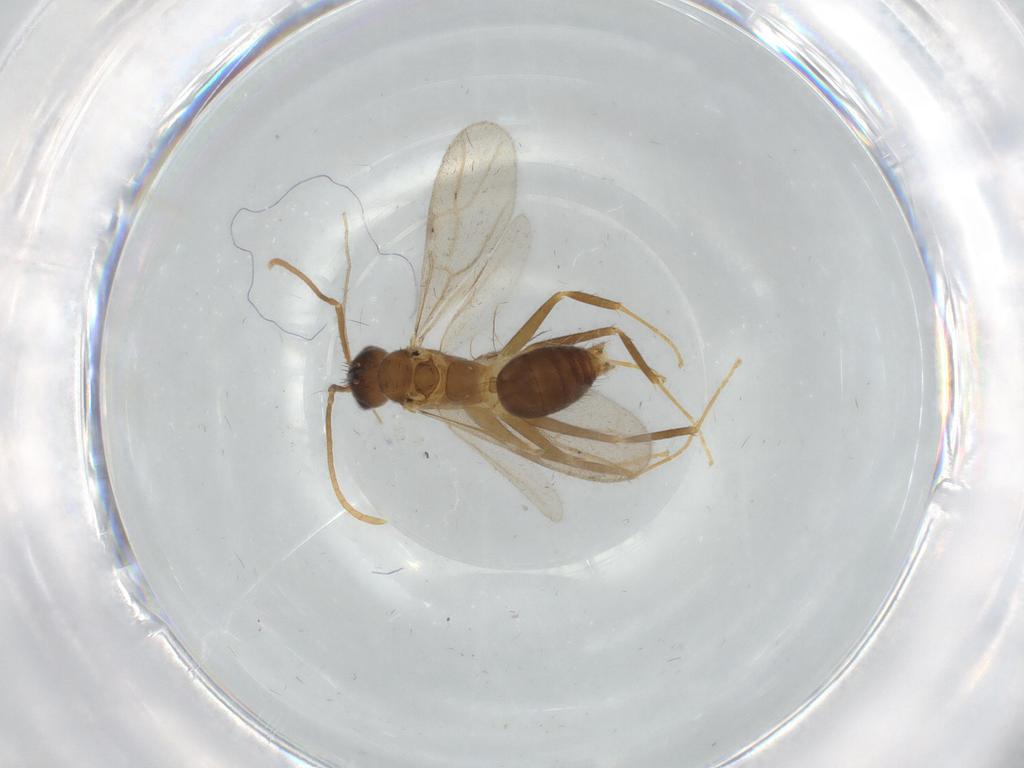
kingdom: Animalia
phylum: Arthropoda
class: Insecta
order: Hymenoptera
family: Formicidae
